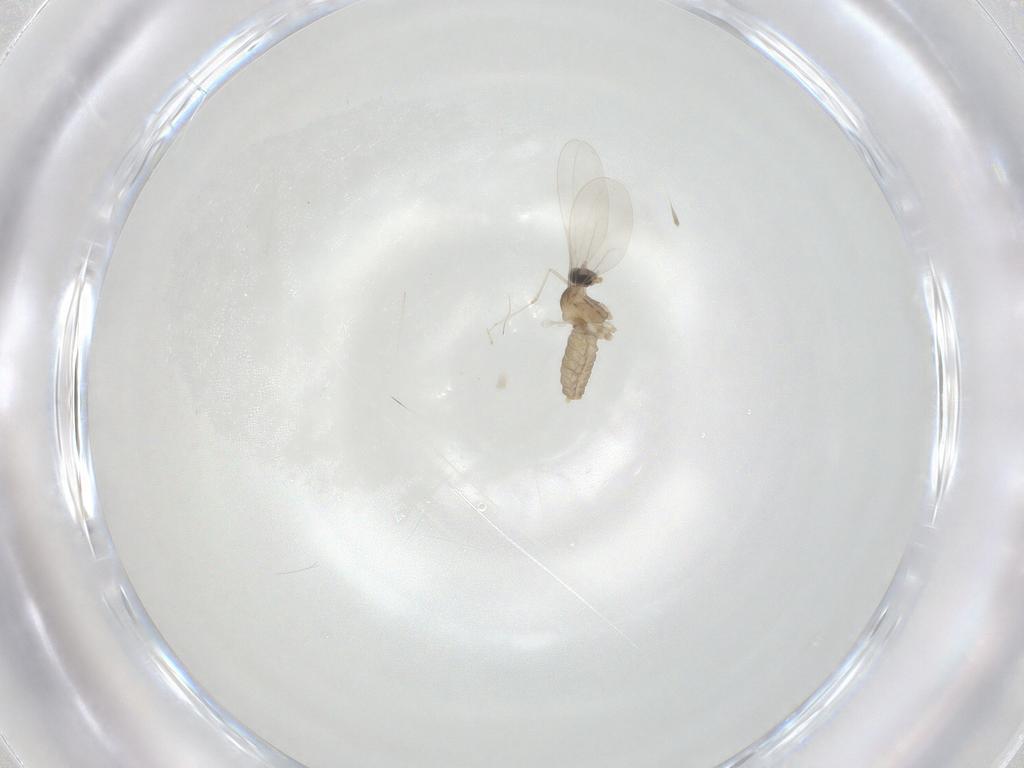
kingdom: Animalia
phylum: Arthropoda
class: Insecta
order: Diptera
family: Cecidomyiidae
